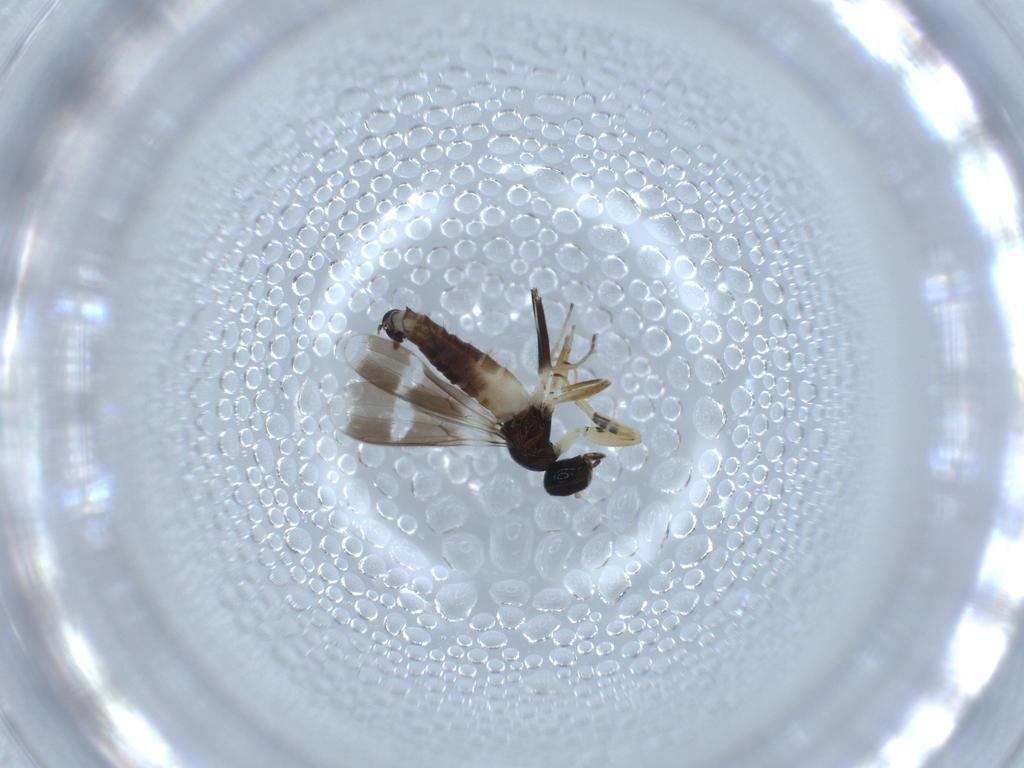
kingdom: Animalia
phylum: Arthropoda
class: Insecta
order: Diptera
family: Hybotidae
